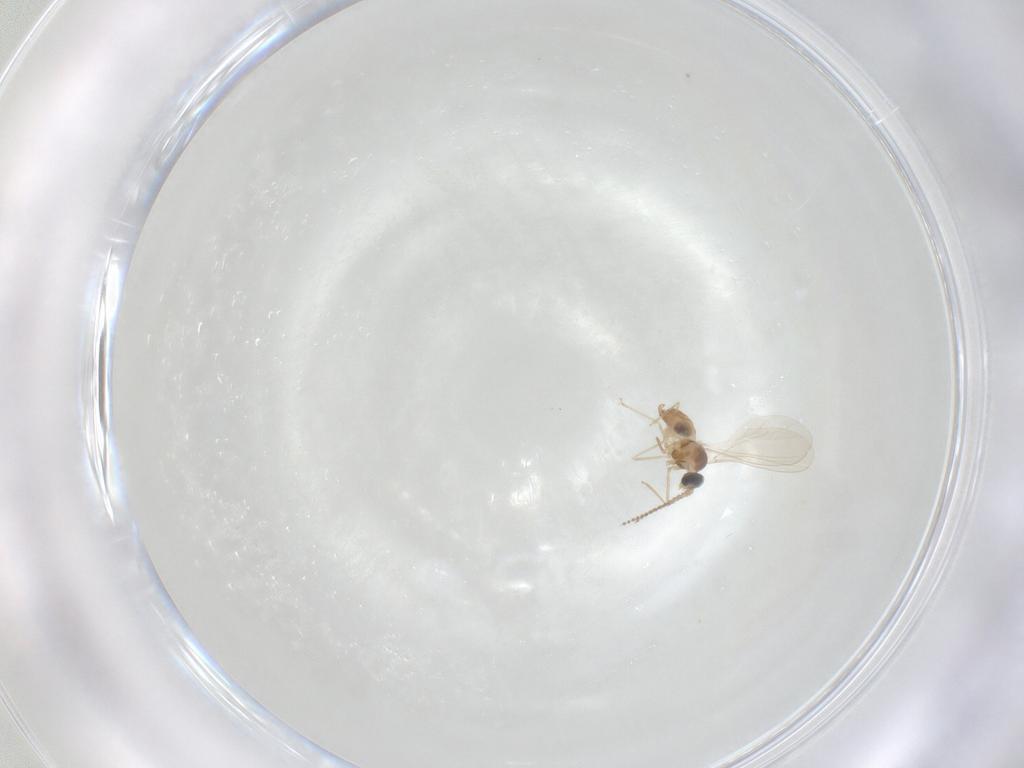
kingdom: Animalia
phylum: Arthropoda
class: Insecta
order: Diptera
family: Cecidomyiidae
